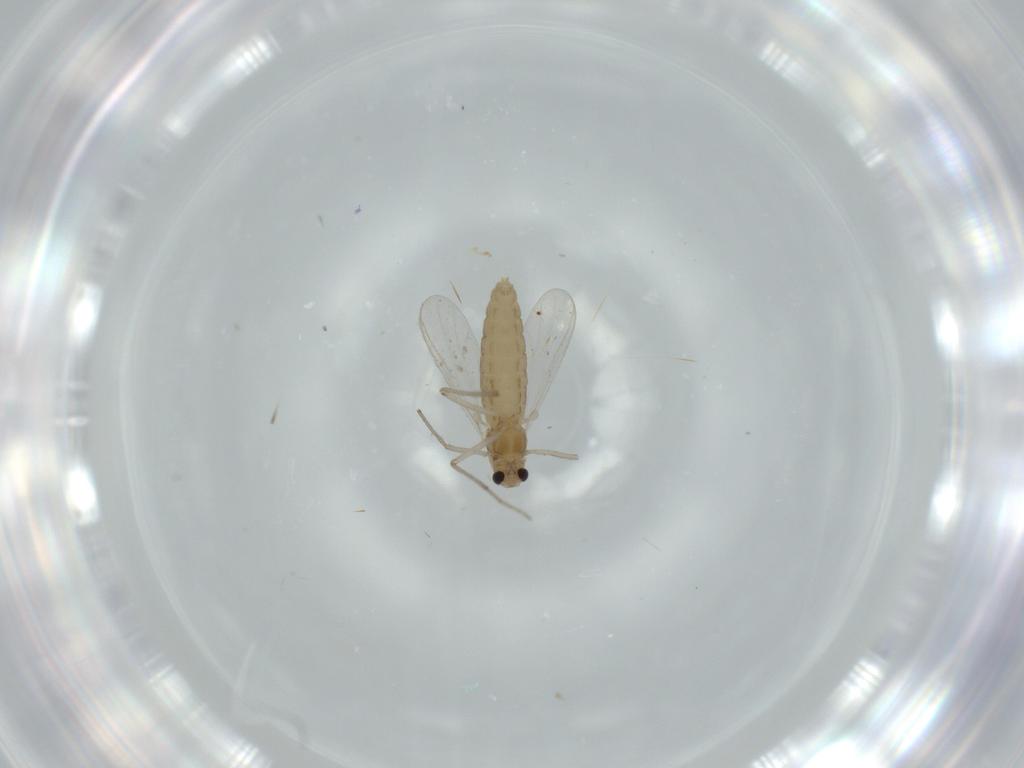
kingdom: Animalia
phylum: Arthropoda
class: Insecta
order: Diptera
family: Chironomidae
